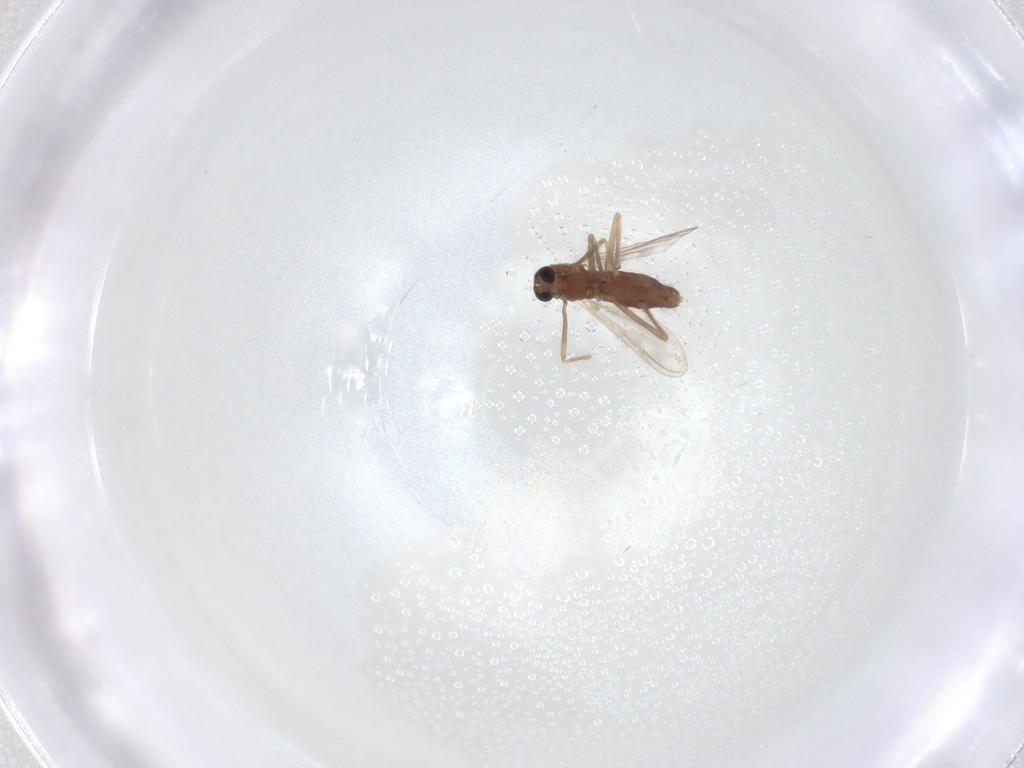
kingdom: Animalia
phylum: Arthropoda
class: Insecta
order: Diptera
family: Chironomidae
